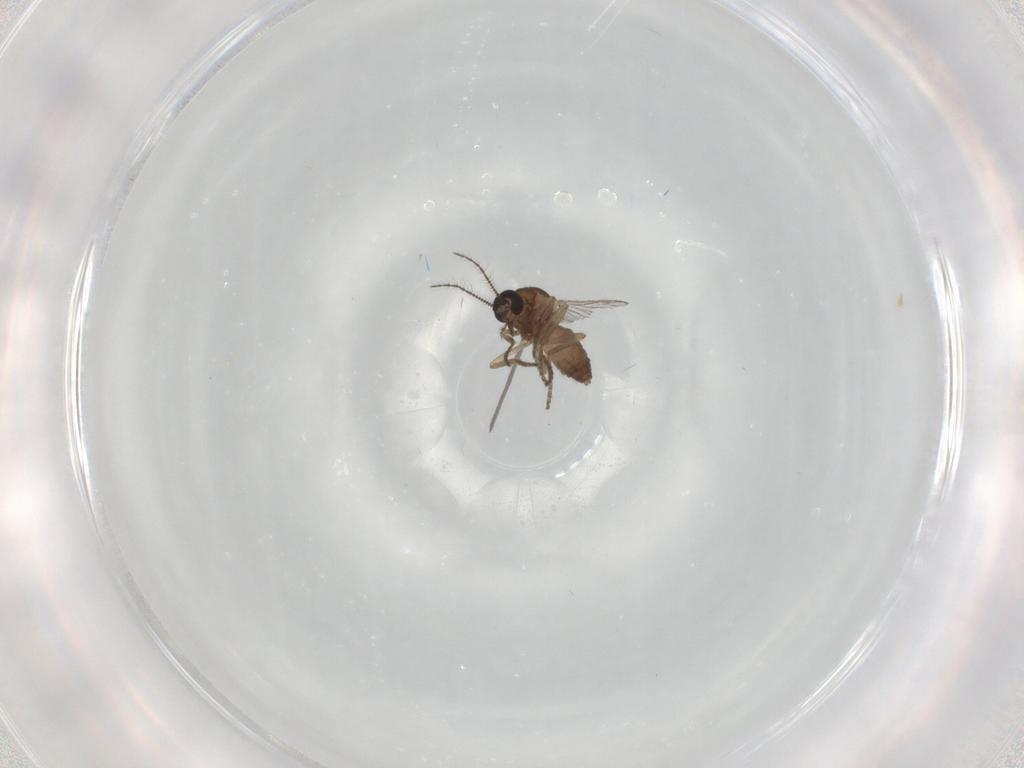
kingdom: Animalia
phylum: Arthropoda
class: Insecta
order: Diptera
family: Ceratopogonidae
